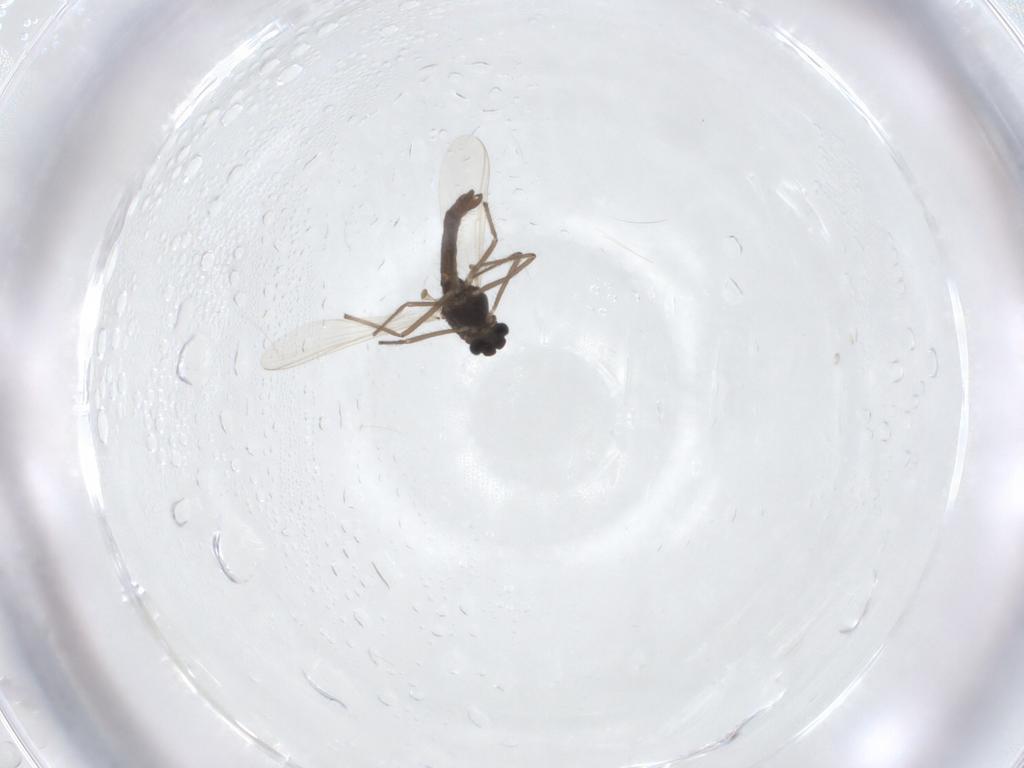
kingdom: Animalia
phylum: Arthropoda
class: Insecta
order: Diptera
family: Chironomidae
